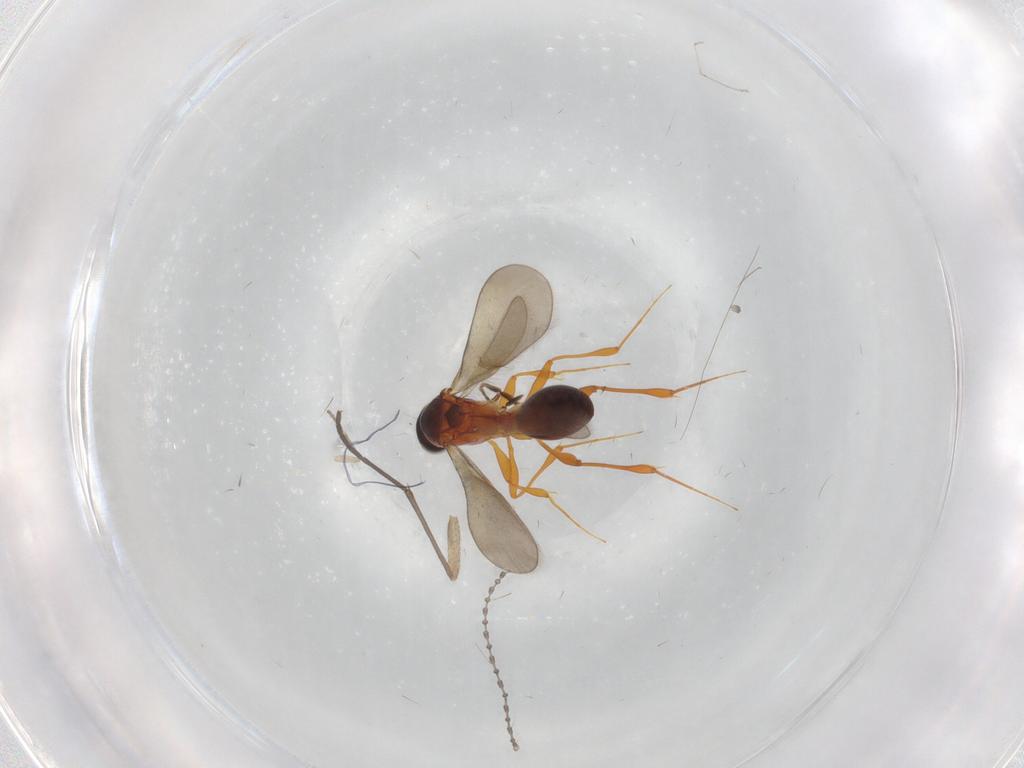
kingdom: Animalia
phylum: Arthropoda
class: Insecta
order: Hymenoptera
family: Platygastridae
